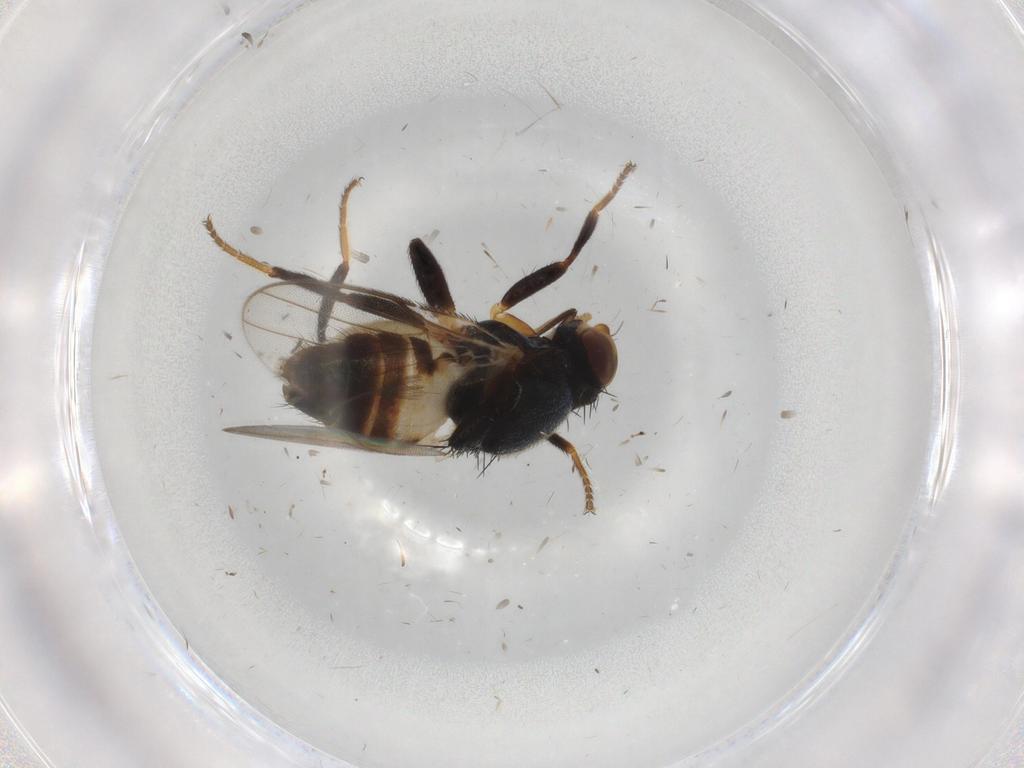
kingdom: Animalia
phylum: Arthropoda
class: Insecta
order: Diptera
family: Chloropidae
